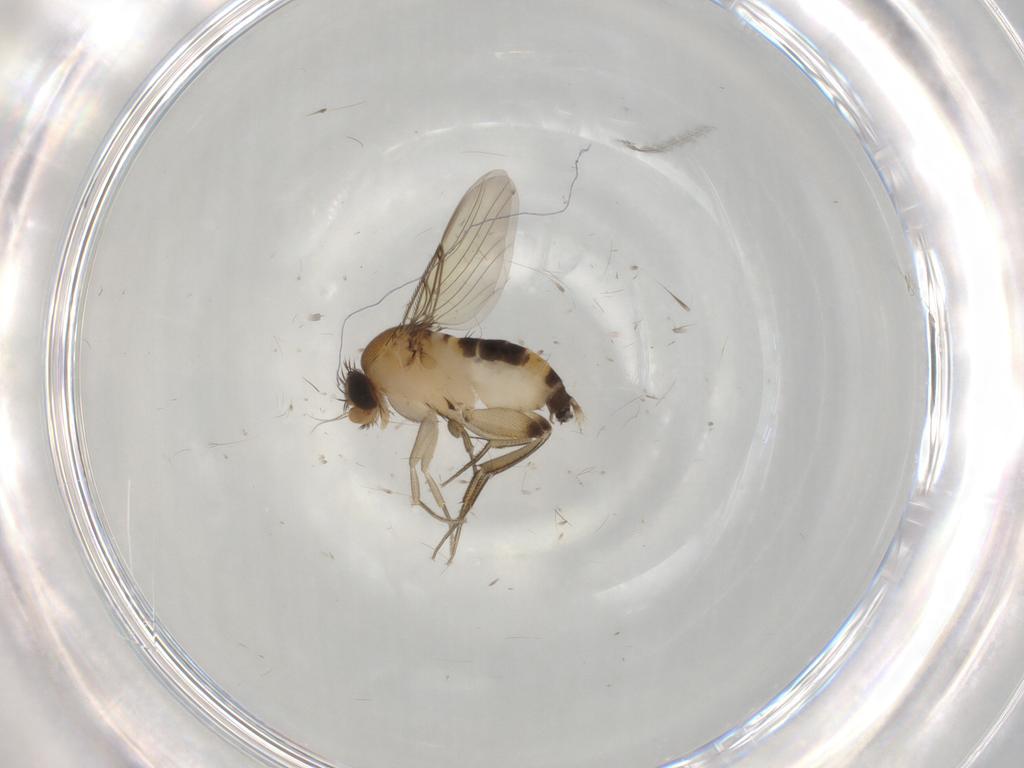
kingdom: Animalia
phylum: Arthropoda
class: Insecta
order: Diptera
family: Phoridae
